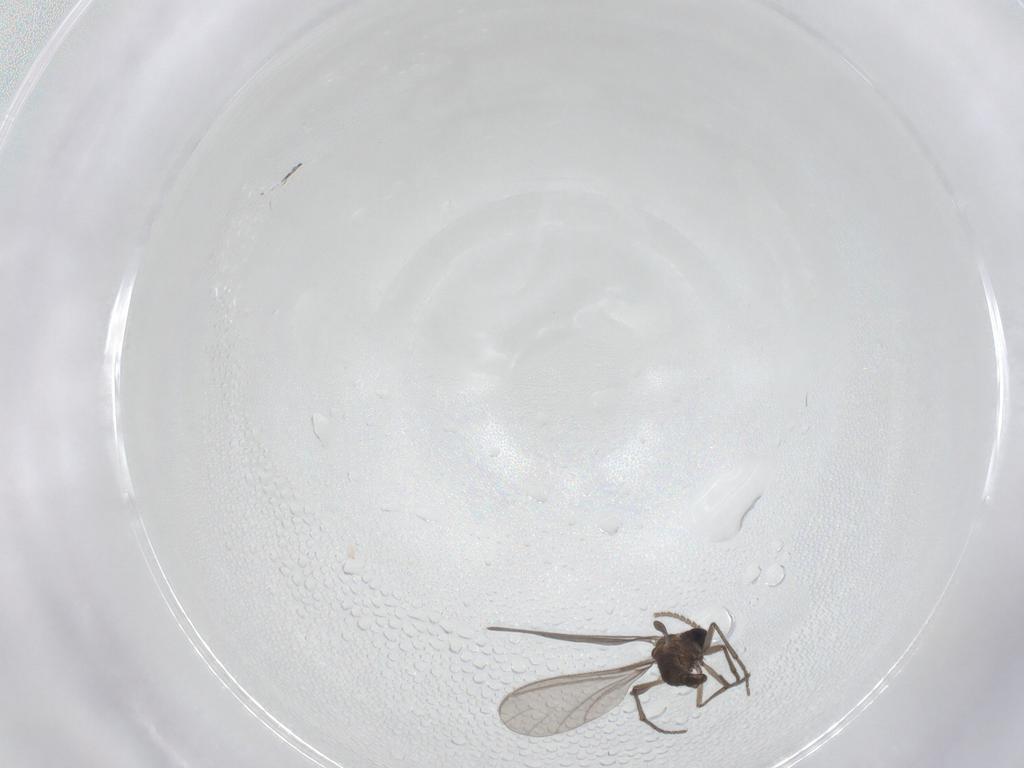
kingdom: Animalia
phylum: Arthropoda
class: Insecta
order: Diptera
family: Sciaridae
